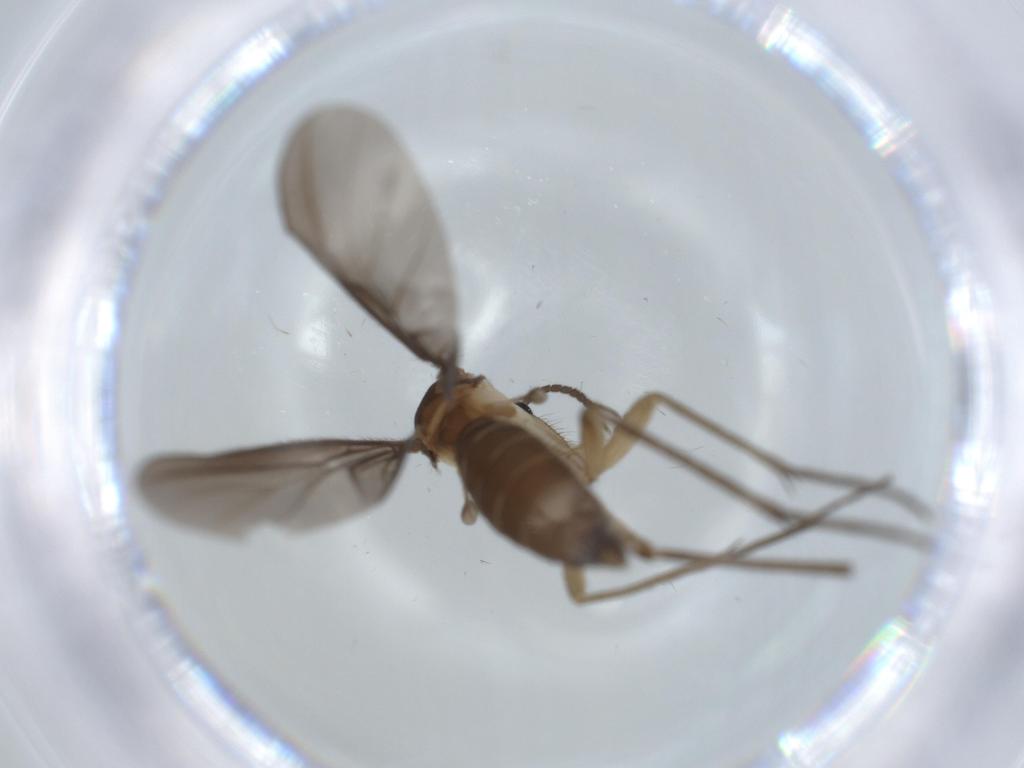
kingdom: Animalia
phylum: Arthropoda
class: Insecta
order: Diptera
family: Cecidomyiidae
